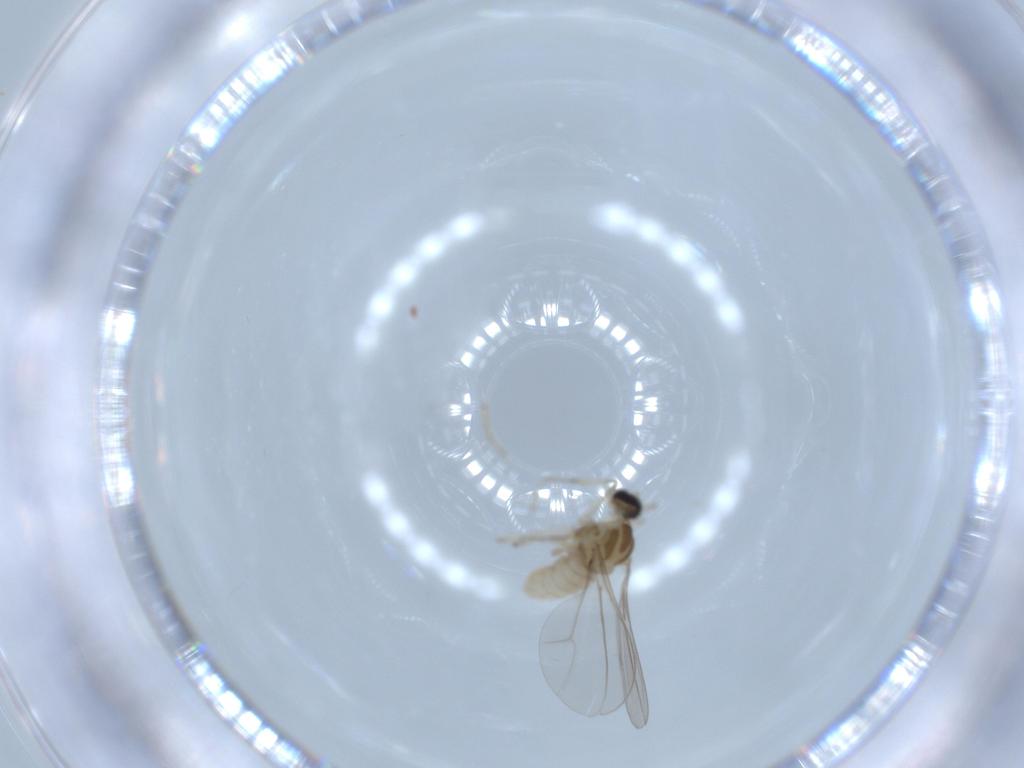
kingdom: Animalia
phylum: Arthropoda
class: Insecta
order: Diptera
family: Cecidomyiidae
